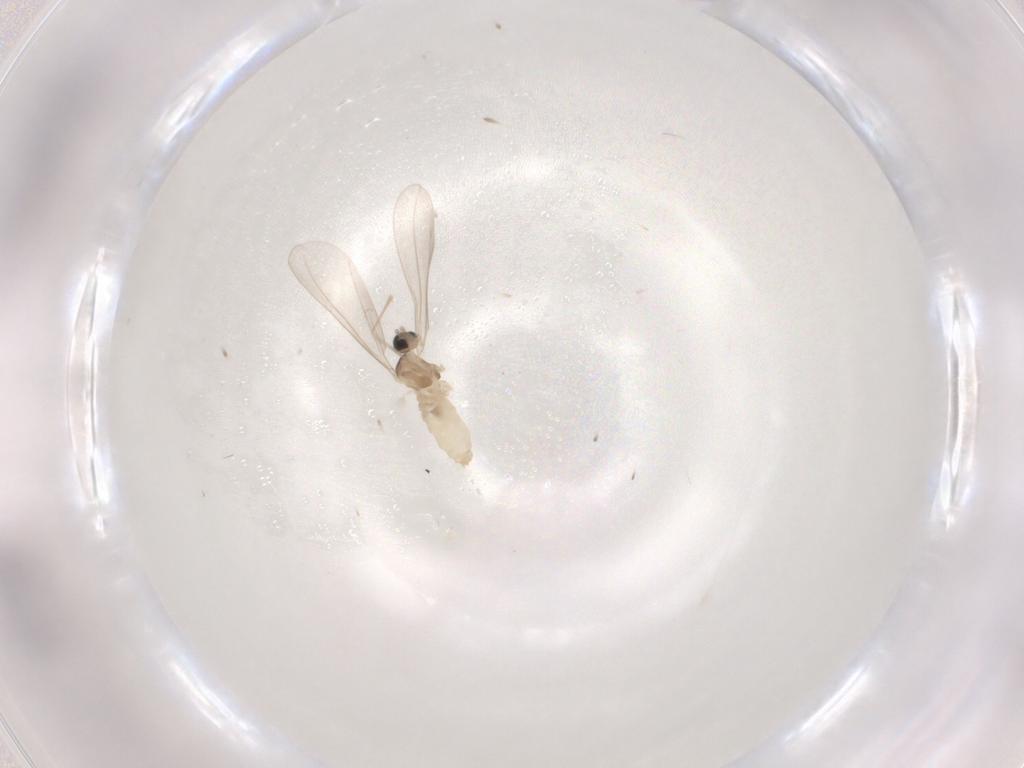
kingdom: Animalia
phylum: Arthropoda
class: Insecta
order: Diptera
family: Cecidomyiidae
